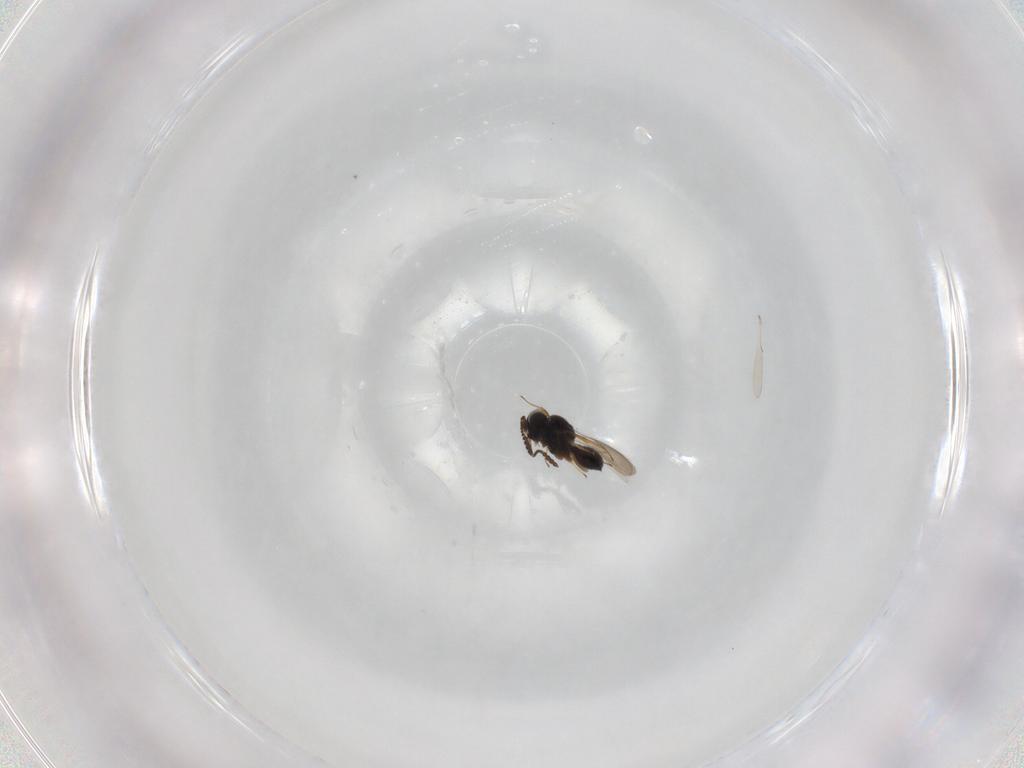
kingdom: Animalia
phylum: Arthropoda
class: Insecta
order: Hymenoptera
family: Scelionidae
